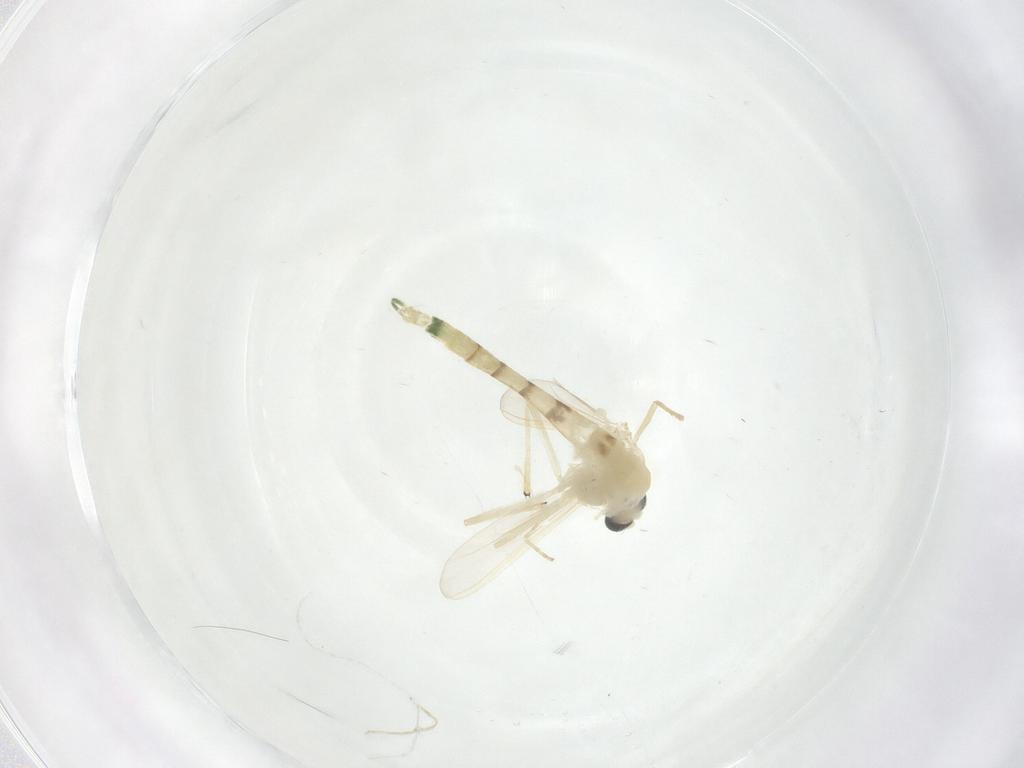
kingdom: Animalia
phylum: Arthropoda
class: Insecta
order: Diptera
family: Chironomidae
